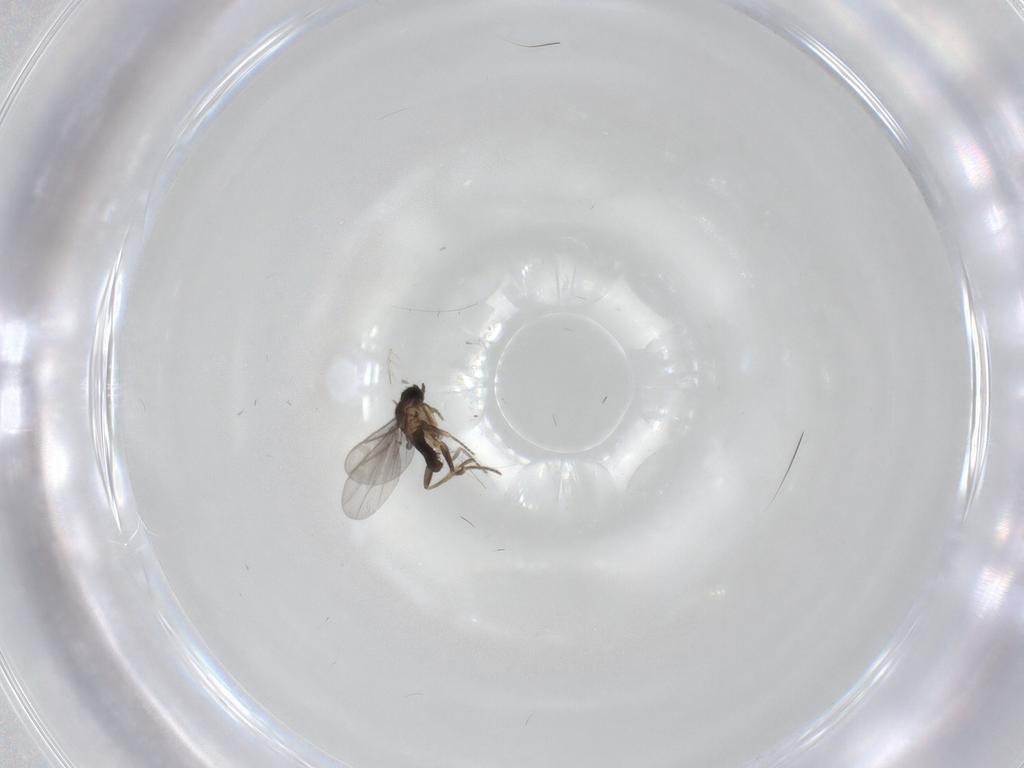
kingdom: Animalia
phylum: Arthropoda
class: Insecta
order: Diptera
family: Phoridae
